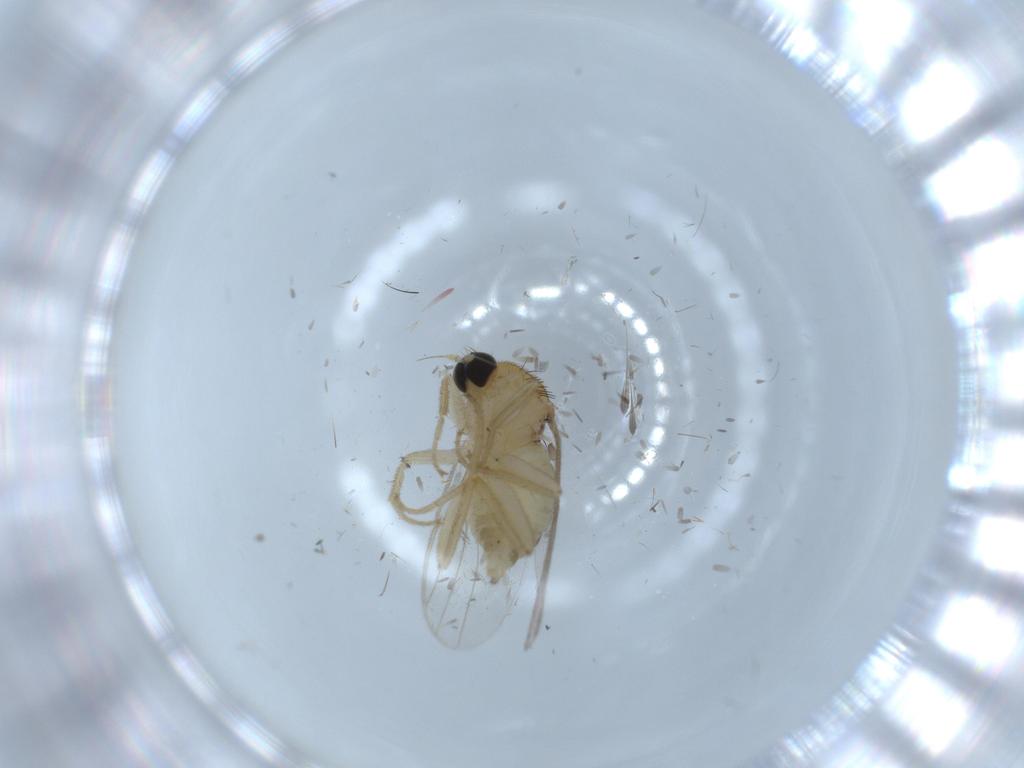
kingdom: Animalia
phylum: Arthropoda
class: Insecta
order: Diptera
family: Hybotidae
